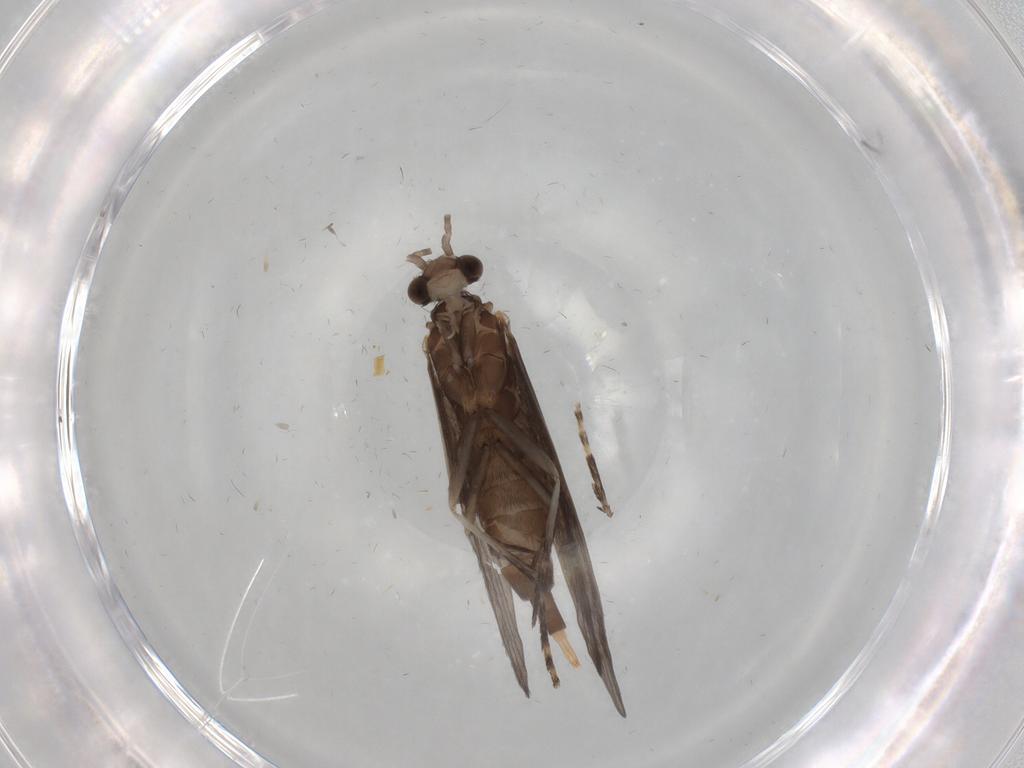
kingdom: Animalia
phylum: Arthropoda
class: Insecta
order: Trichoptera
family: Xiphocentronidae
